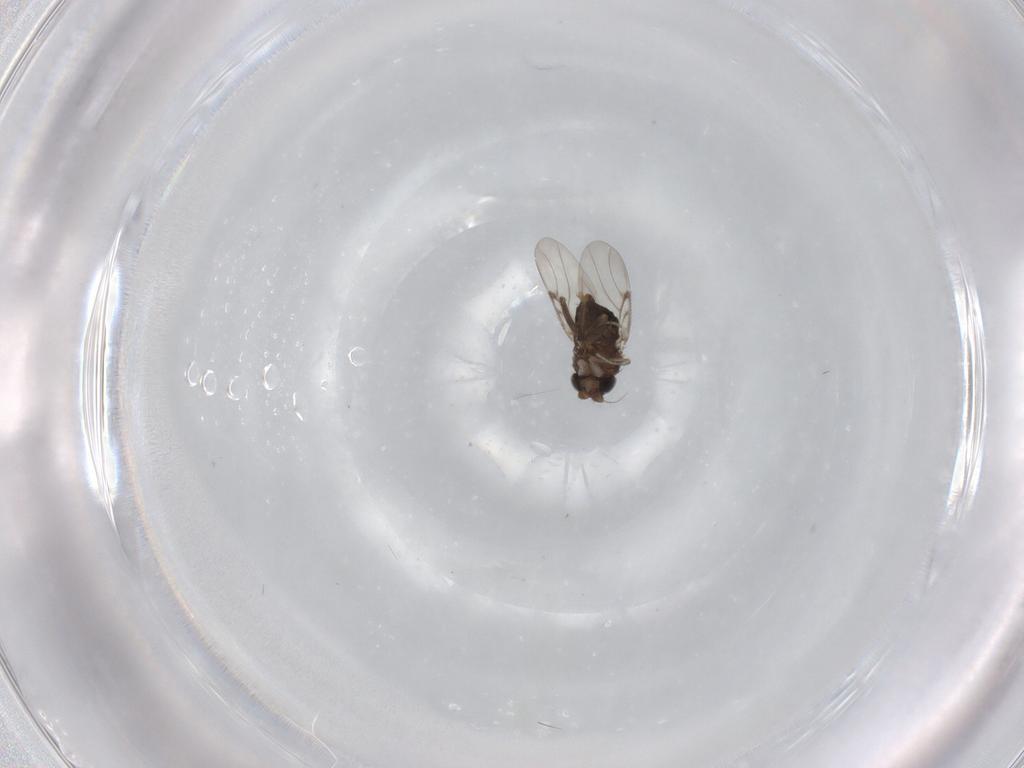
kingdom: Animalia
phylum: Arthropoda
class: Insecta
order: Diptera
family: Phoridae
